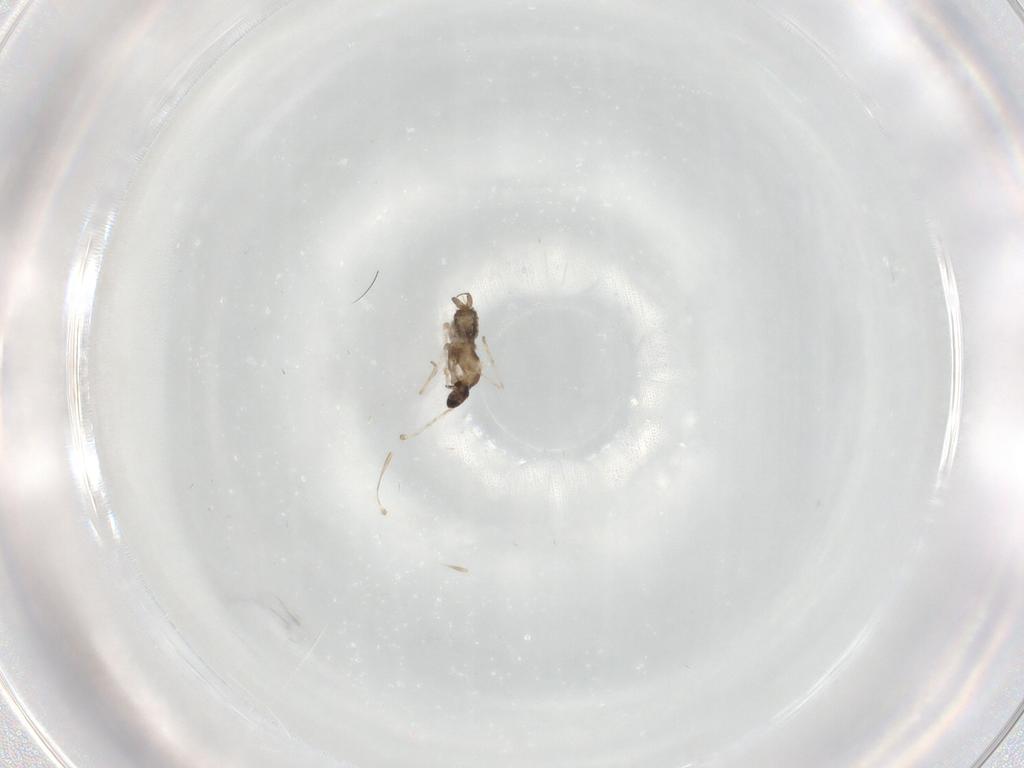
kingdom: Animalia
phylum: Arthropoda
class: Insecta
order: Diptera
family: Cecidomyiidae
